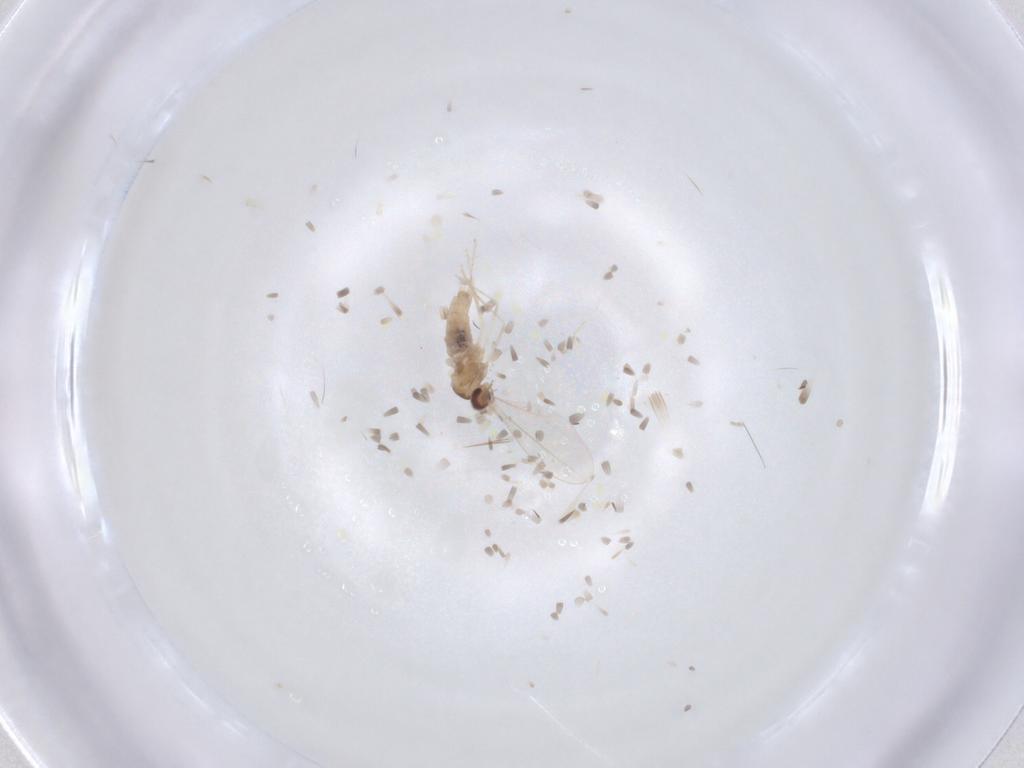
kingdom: Animalia
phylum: Arthropoda
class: Insecta
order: Diptera
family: Cecidomyiidae
